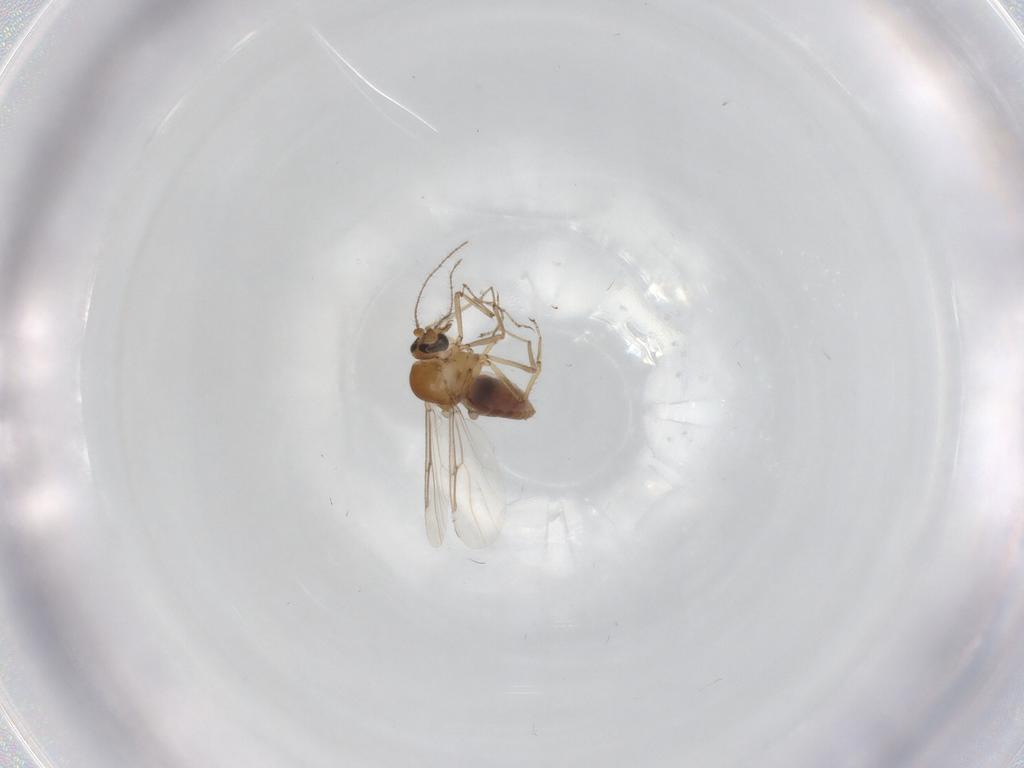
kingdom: Animalia
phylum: Arthropoda
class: Insecta
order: Diptera
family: Ceratopogonidae
